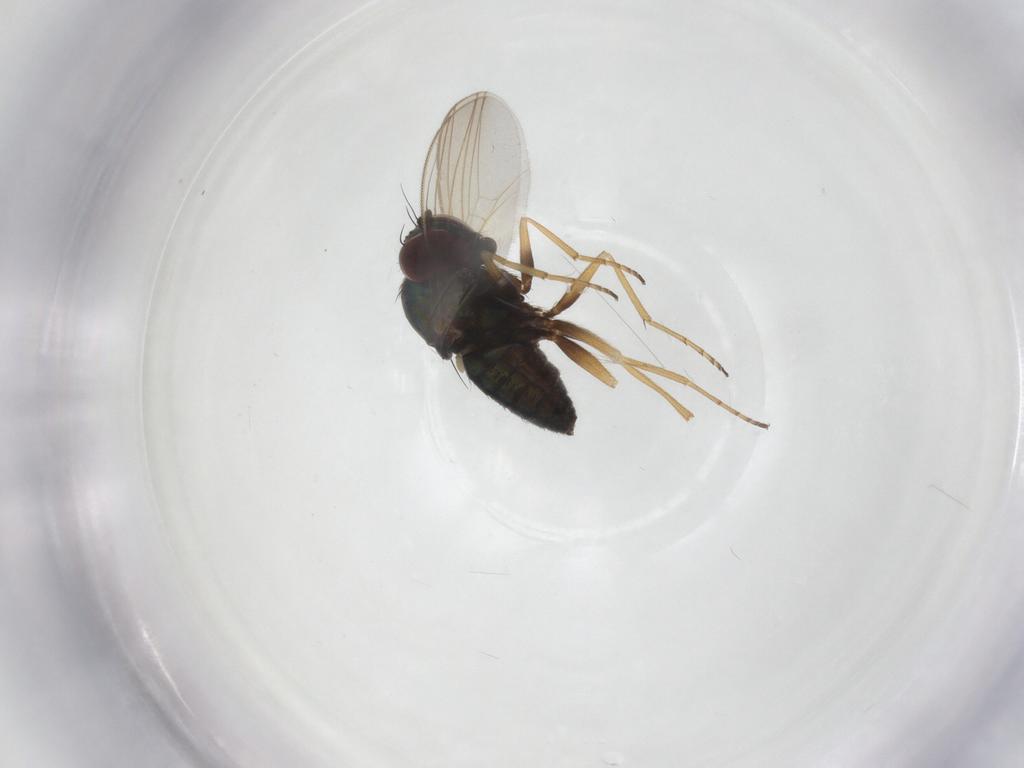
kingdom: Animalia
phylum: Arthropoda
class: Insecta
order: Diptera
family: Dolichopodidae
